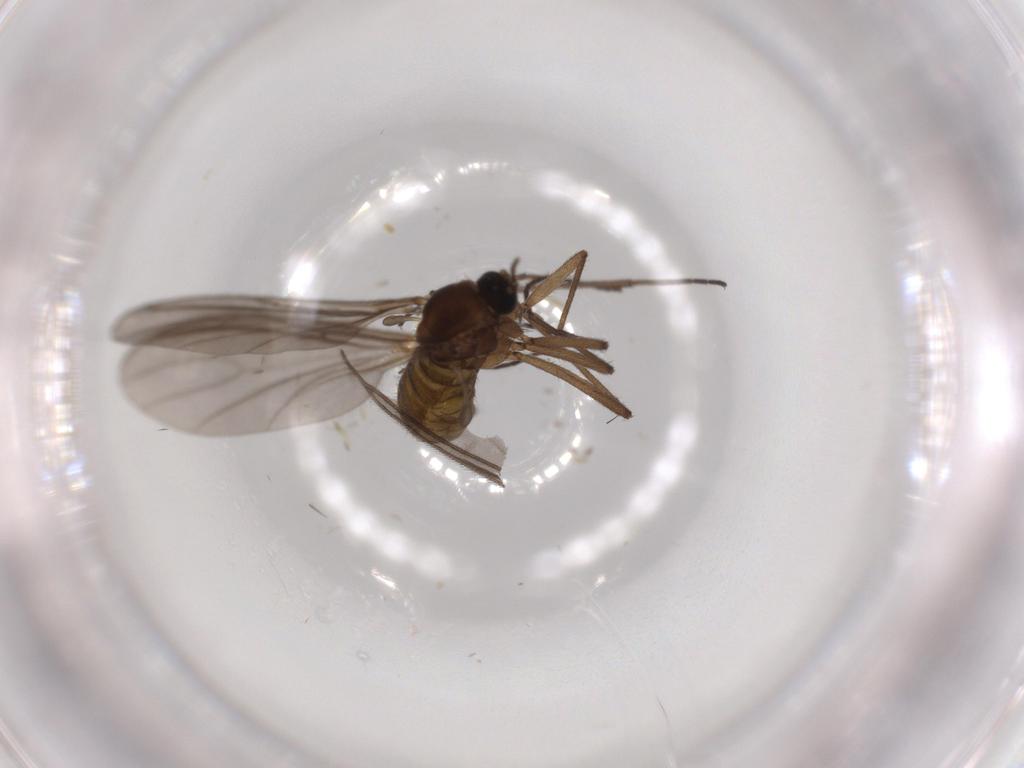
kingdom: Animalia
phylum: Arthropoda
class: Insecta
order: Diptera
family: Sciaridae
